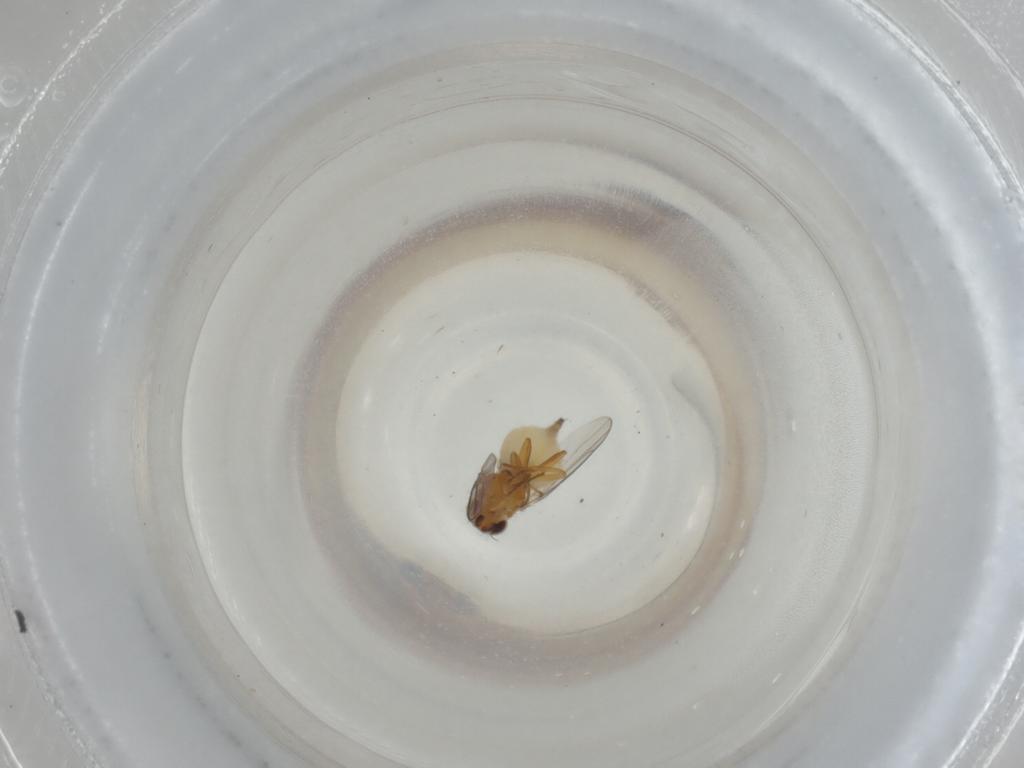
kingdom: Animalia
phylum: Arthropoda
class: Insecta
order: Diptera
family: Chloropidae
